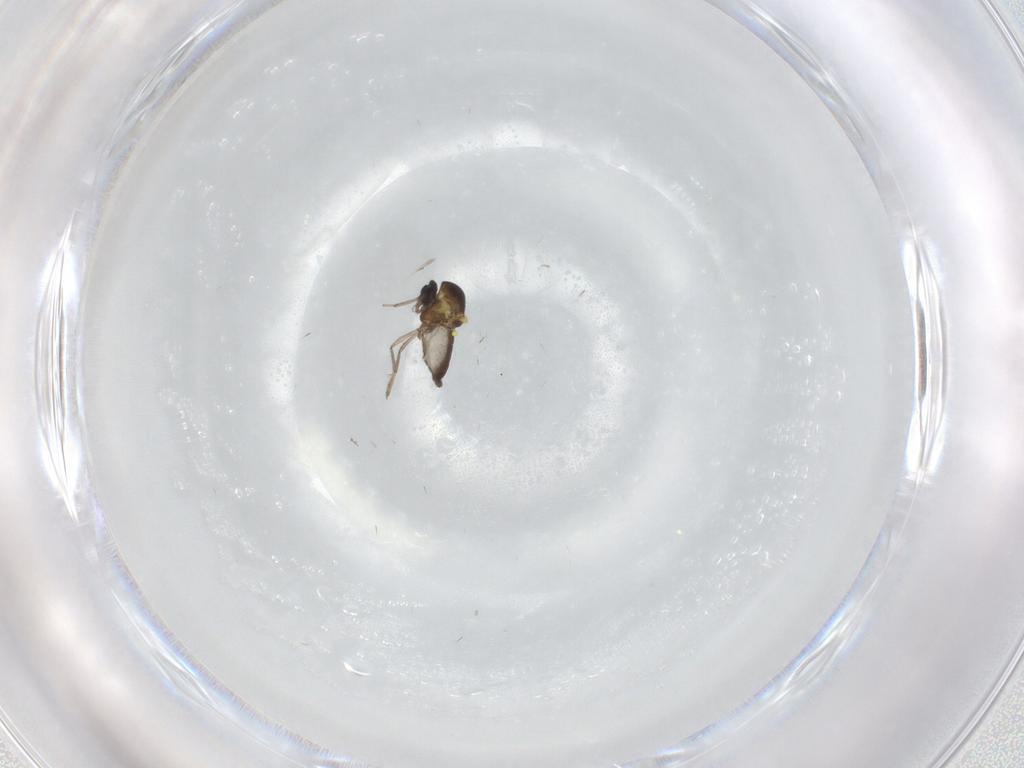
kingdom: Animalia
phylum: Arthropoda
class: Insecta
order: Diptera
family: Ceratopogonidae
